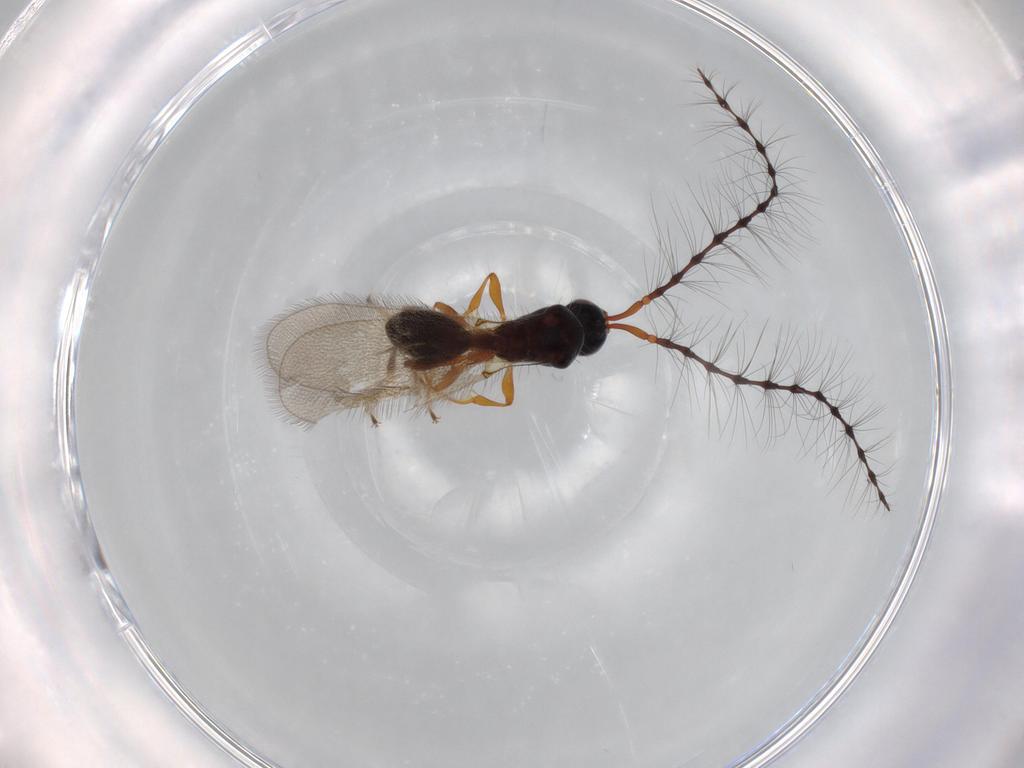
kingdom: Animalia
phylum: Arthropoda
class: Insecta
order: Hymenoptera
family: Diapriidae
